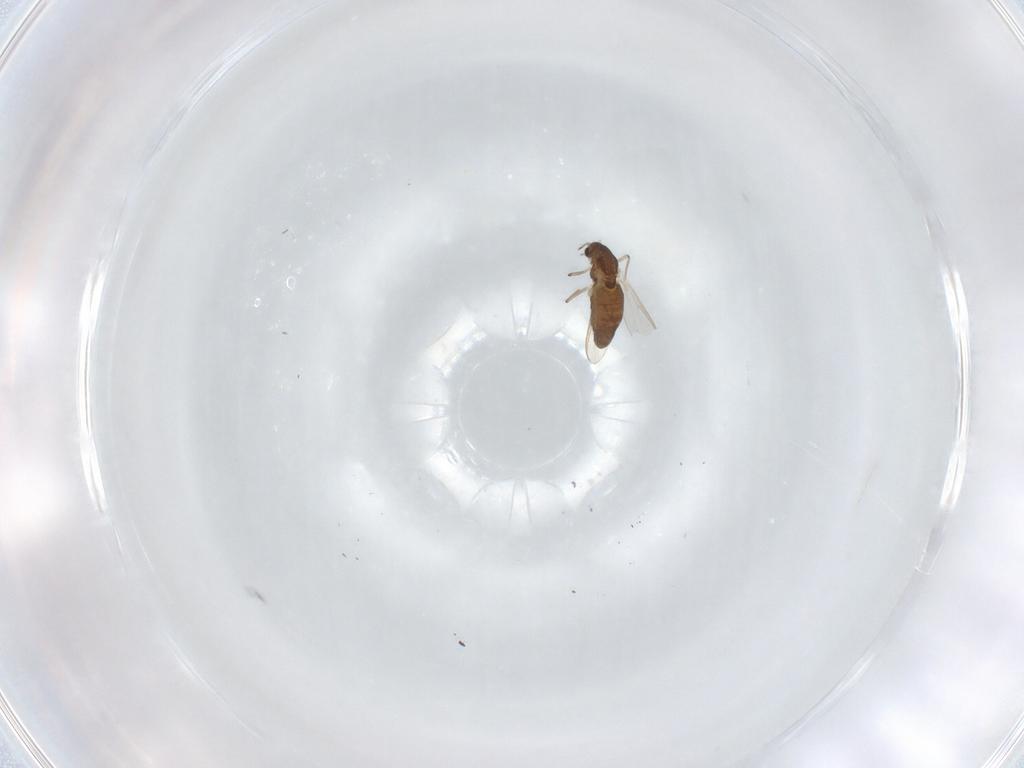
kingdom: Animalia
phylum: Arthropoda
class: Insecta
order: Diptera
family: Chironomidae
